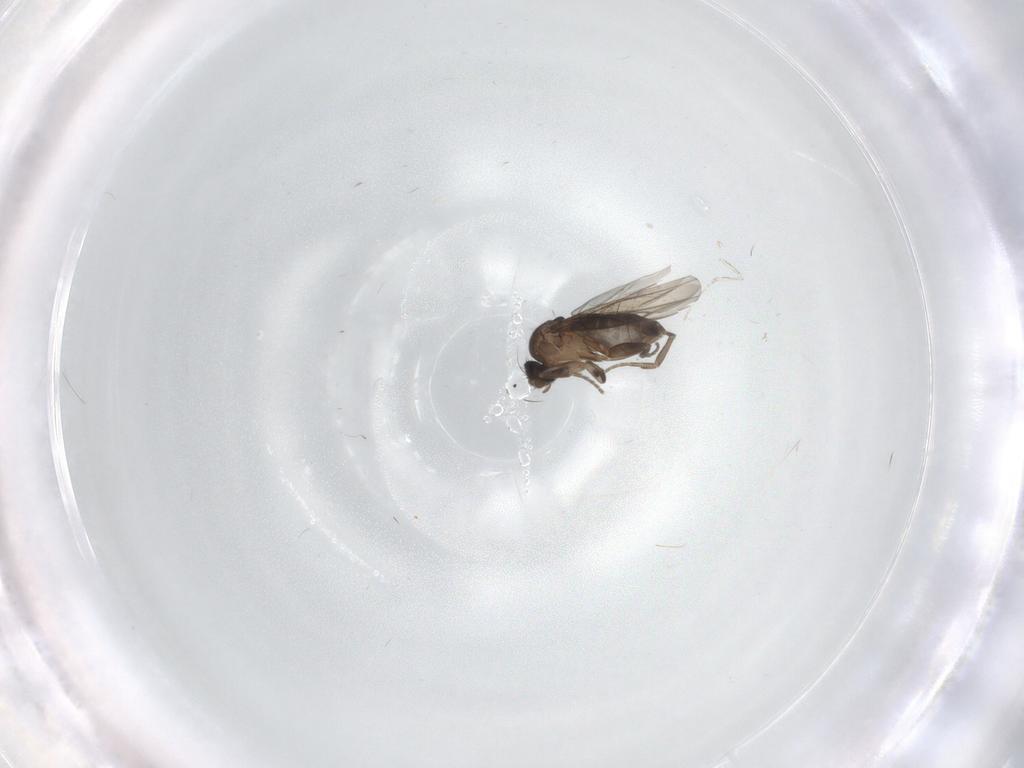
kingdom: Animalia
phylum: Arthropoda
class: Insecta
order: Diptera
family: Phoridae
